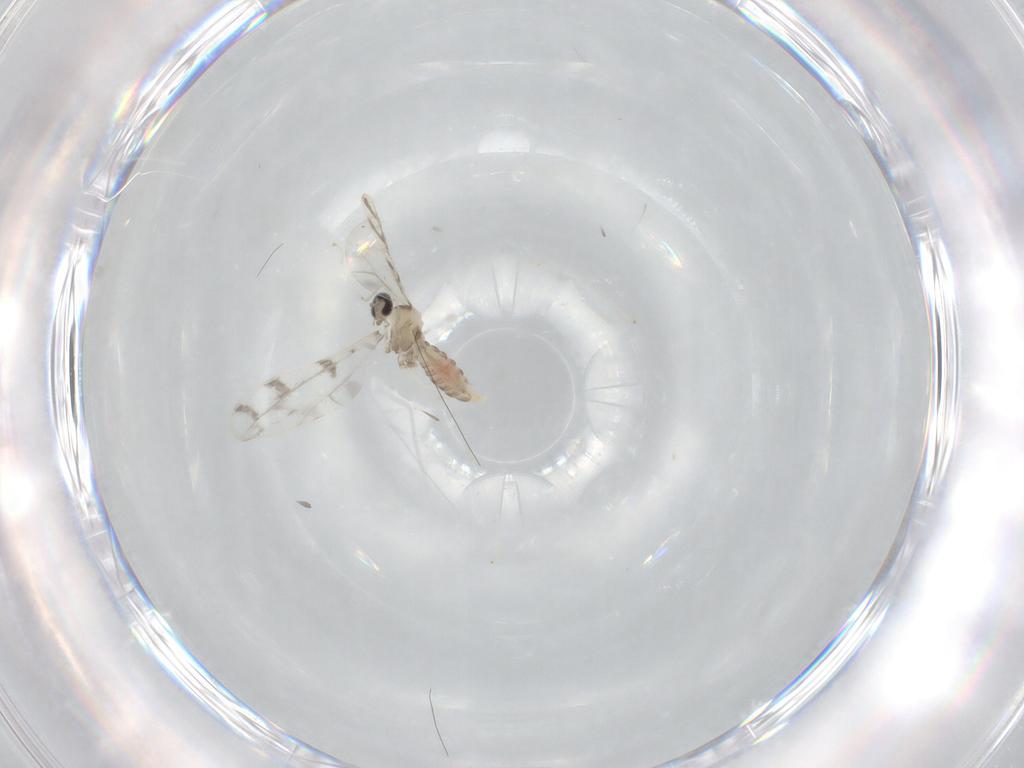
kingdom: Animalia
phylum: Arthropoda
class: Insecta
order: Diptera
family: Cecidomyiidae
